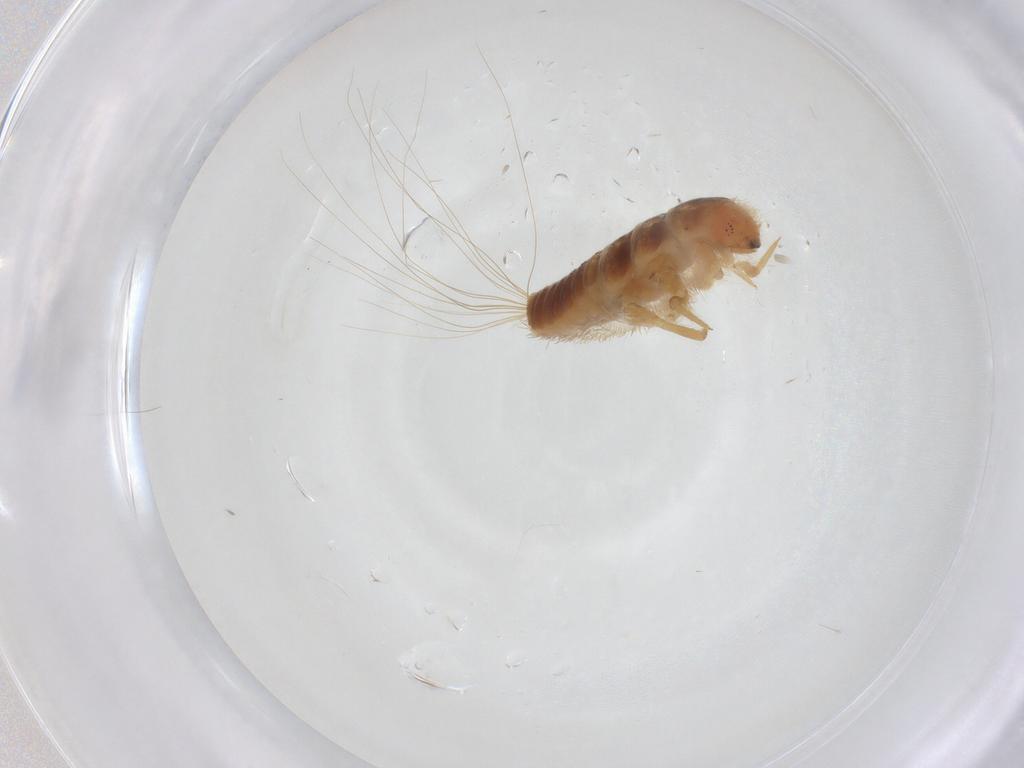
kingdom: Animalia
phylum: Arthropoda
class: Insecta
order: Coleoptera
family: Dermestidae
